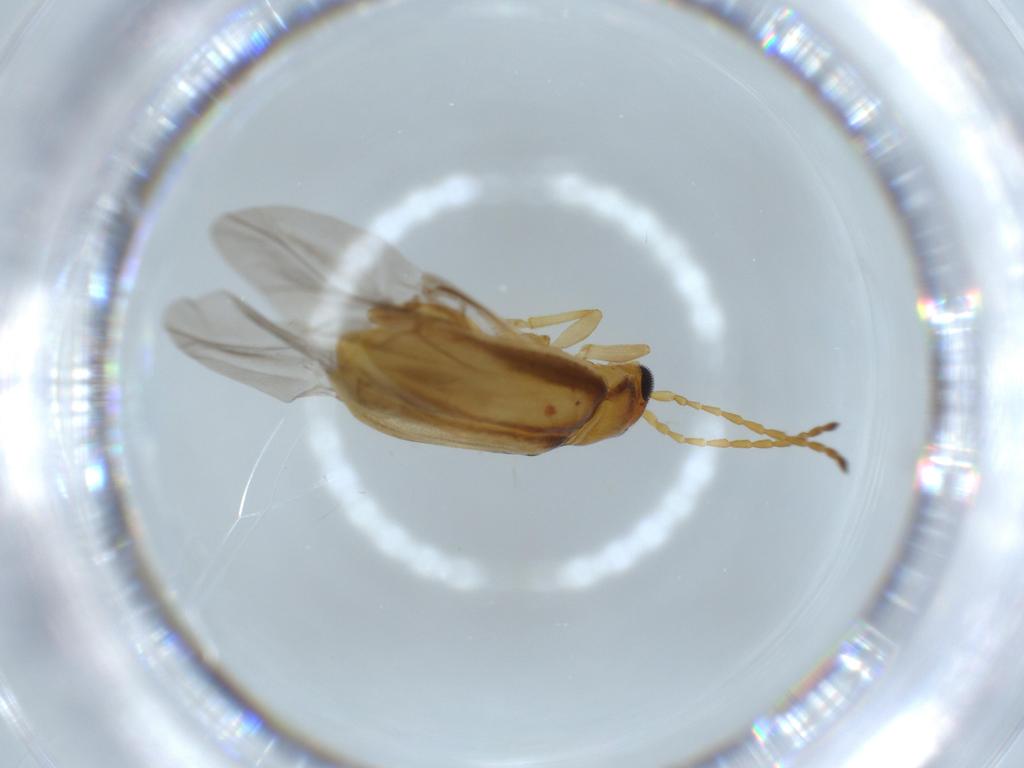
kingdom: Animalia
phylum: Arthropoda
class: Insecta
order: Coleoptera
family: Chrysomelidae
